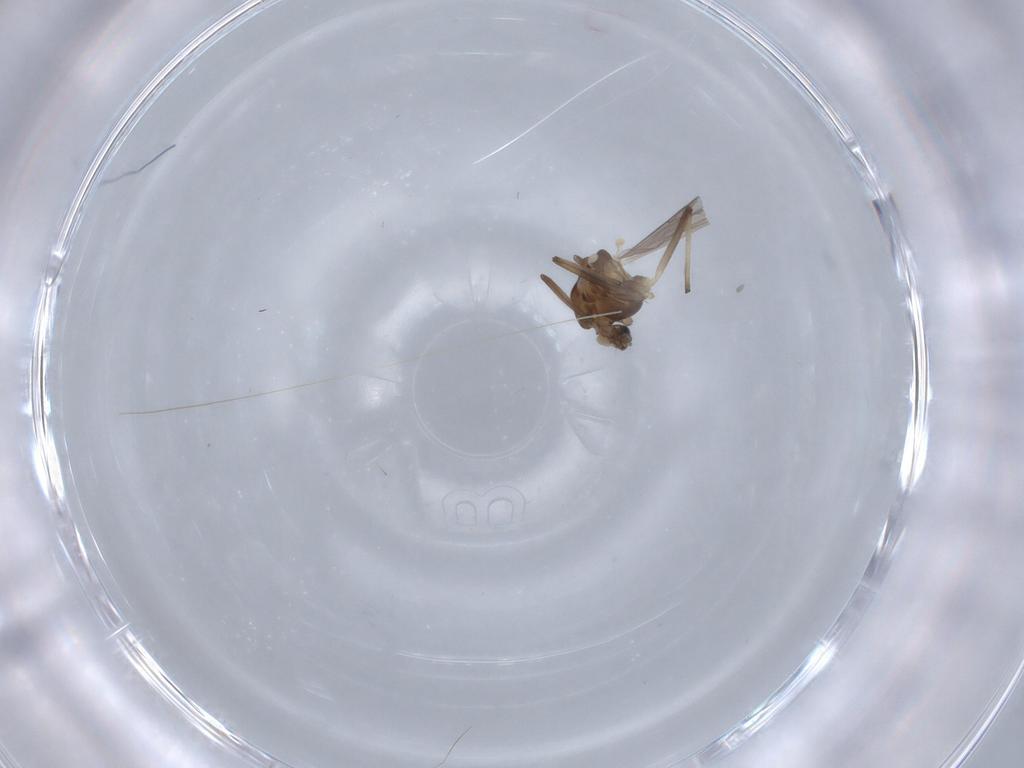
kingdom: Animalia
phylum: Arthropoda
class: Insecta
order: Diptera
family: Chironomidae
